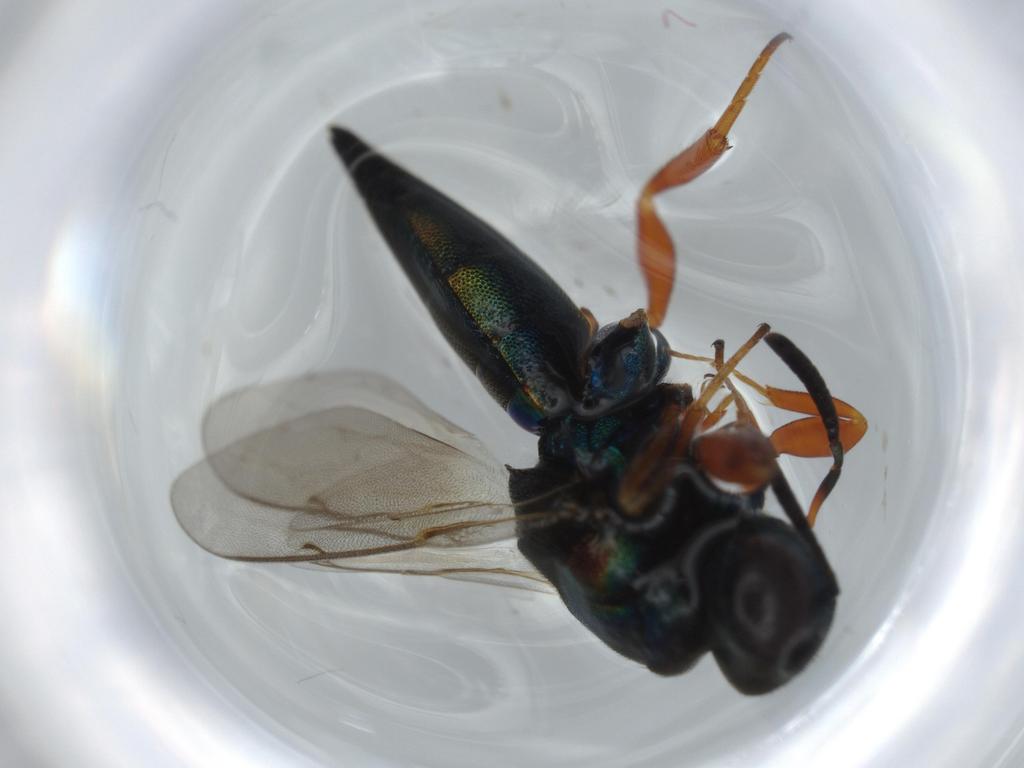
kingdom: Animalia
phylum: Arthropoda
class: Insecta
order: Hymenoptera
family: Lyciscidae
